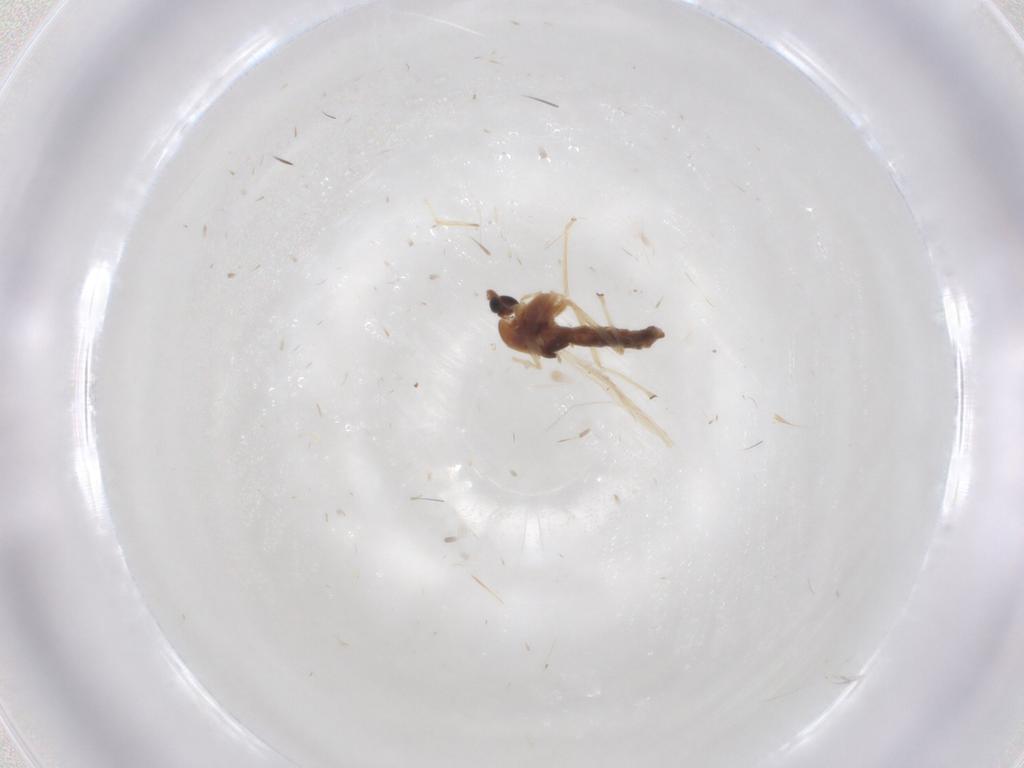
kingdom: Animalia
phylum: Arthropoda
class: Insecta
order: Diptera
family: Chironomidae
